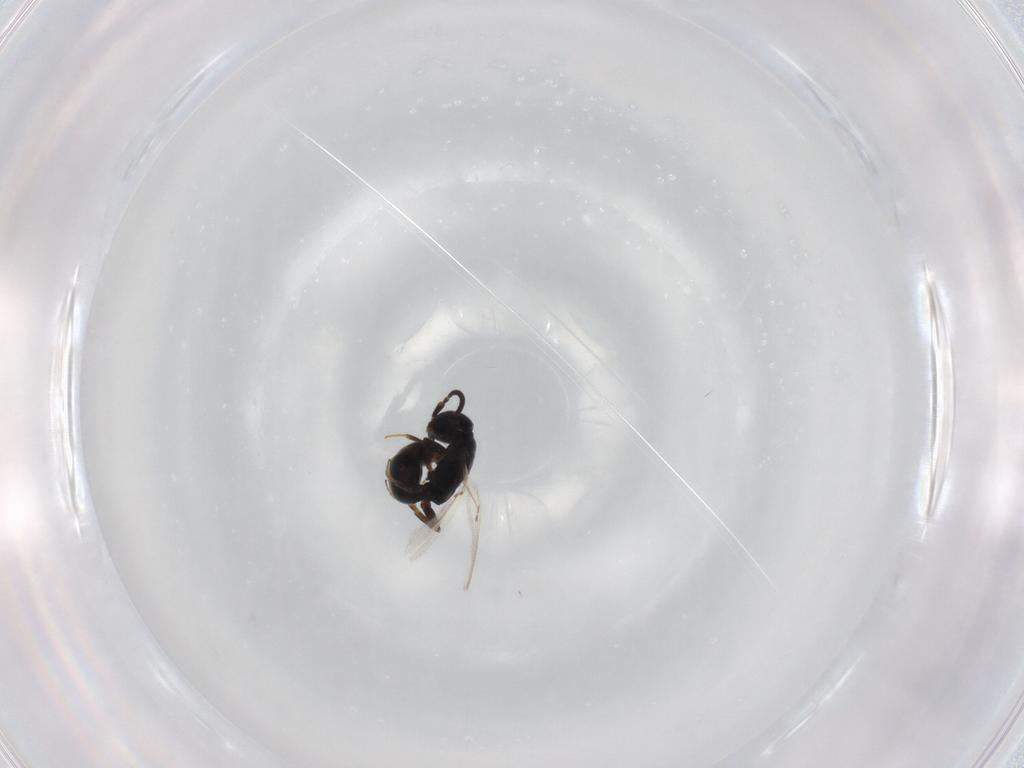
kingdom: Animalia
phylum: Arthropoda
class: Insecta
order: Hymenoptera
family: Bethylidae
